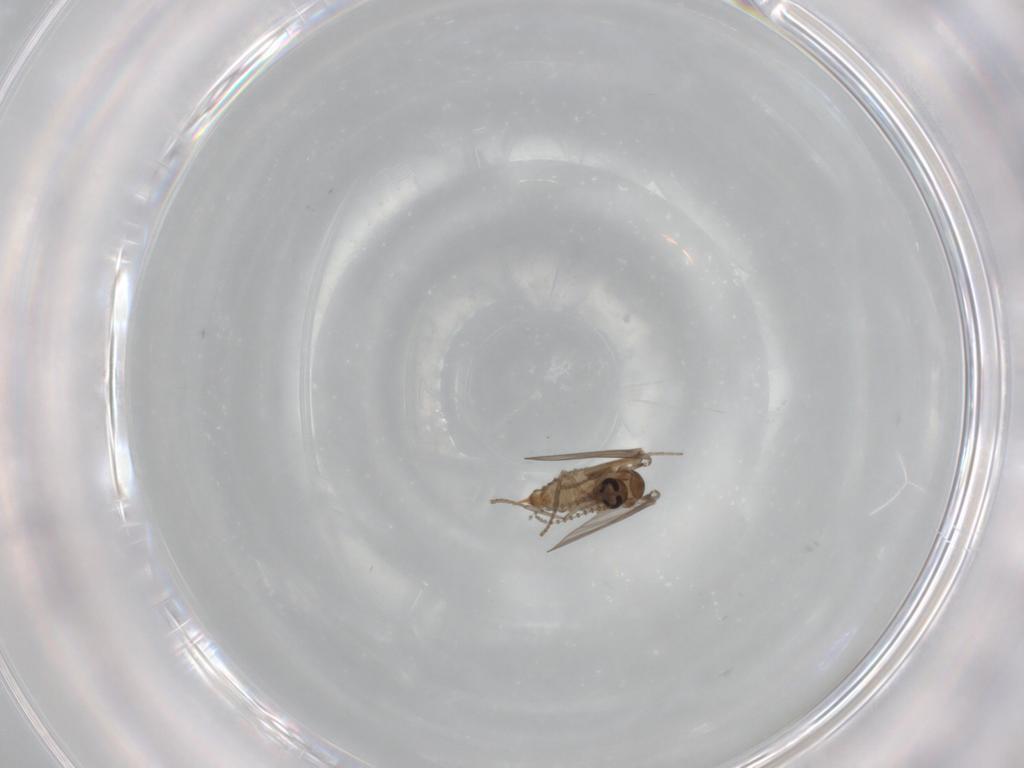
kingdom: Animalia
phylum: Arthropoda
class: Insecta
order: Diptera
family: Psychodidae
